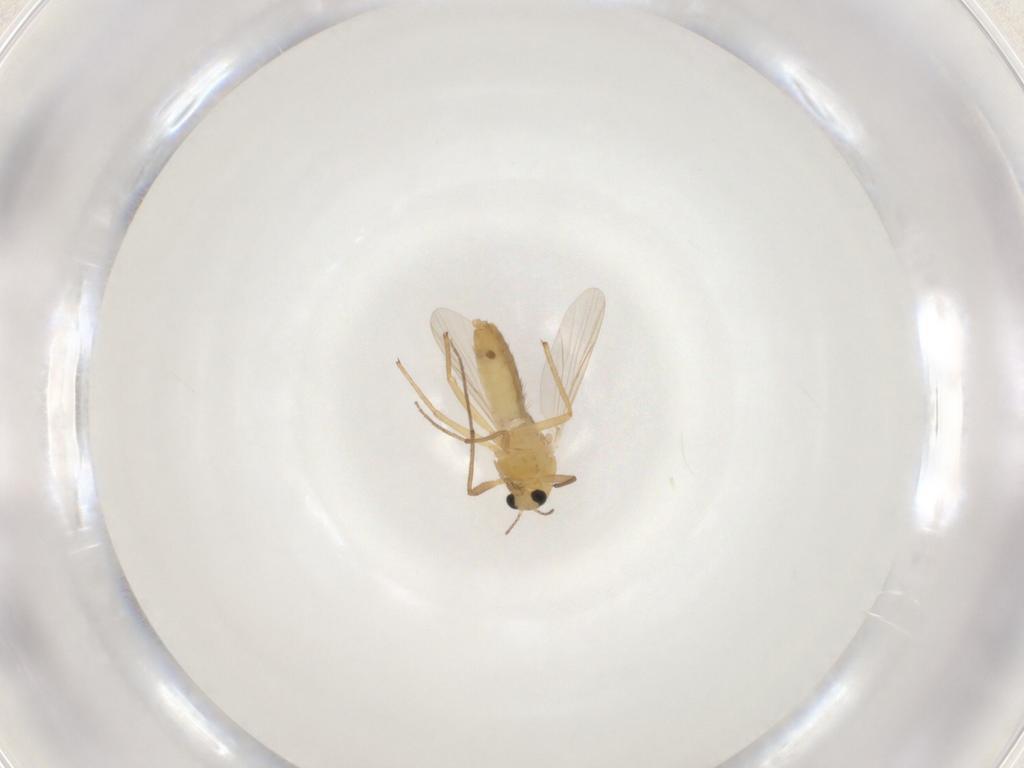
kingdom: Animalia
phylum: Arthropoda
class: Insecta
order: Diptera
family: Chironomidae
